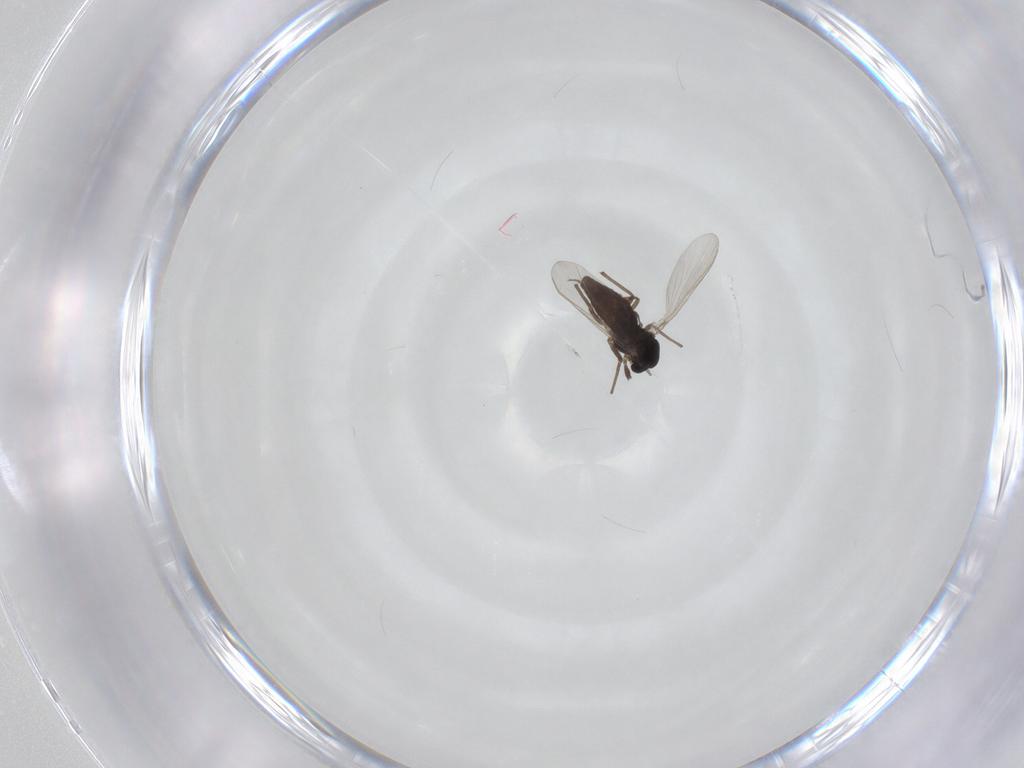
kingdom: Animalia
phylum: Arthropoda
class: Insecta
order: Diptera
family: Chironomidae
